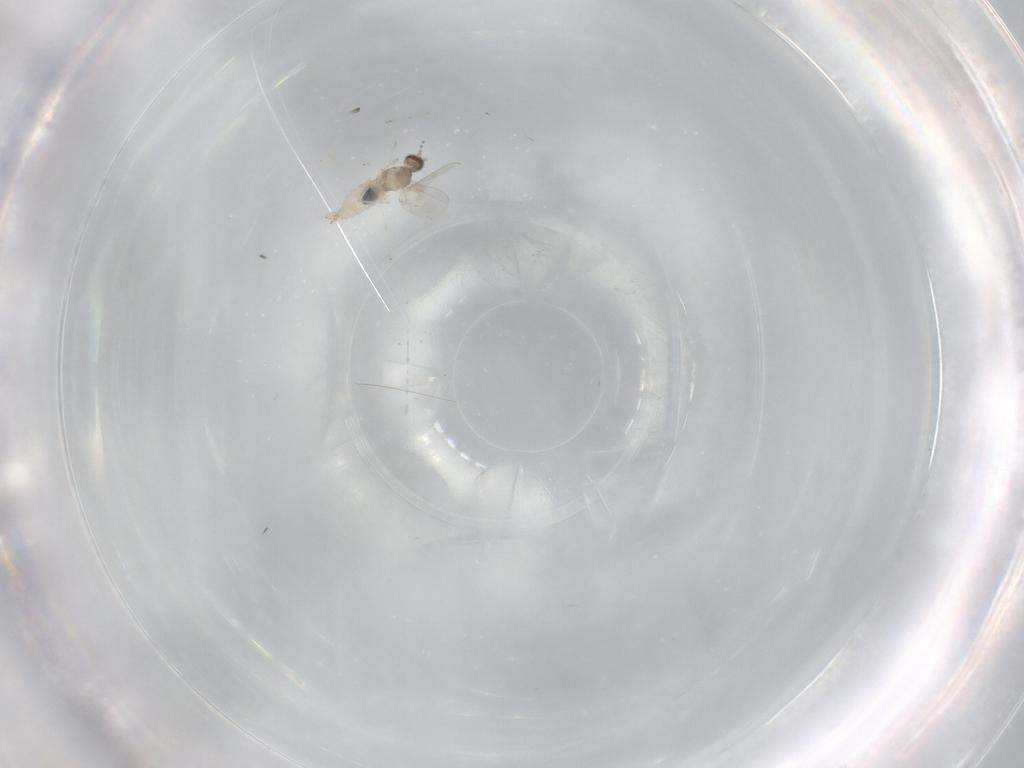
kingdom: Animalia
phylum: Arthropoda
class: Insecta
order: Diptera
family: Cecidomyiidae
